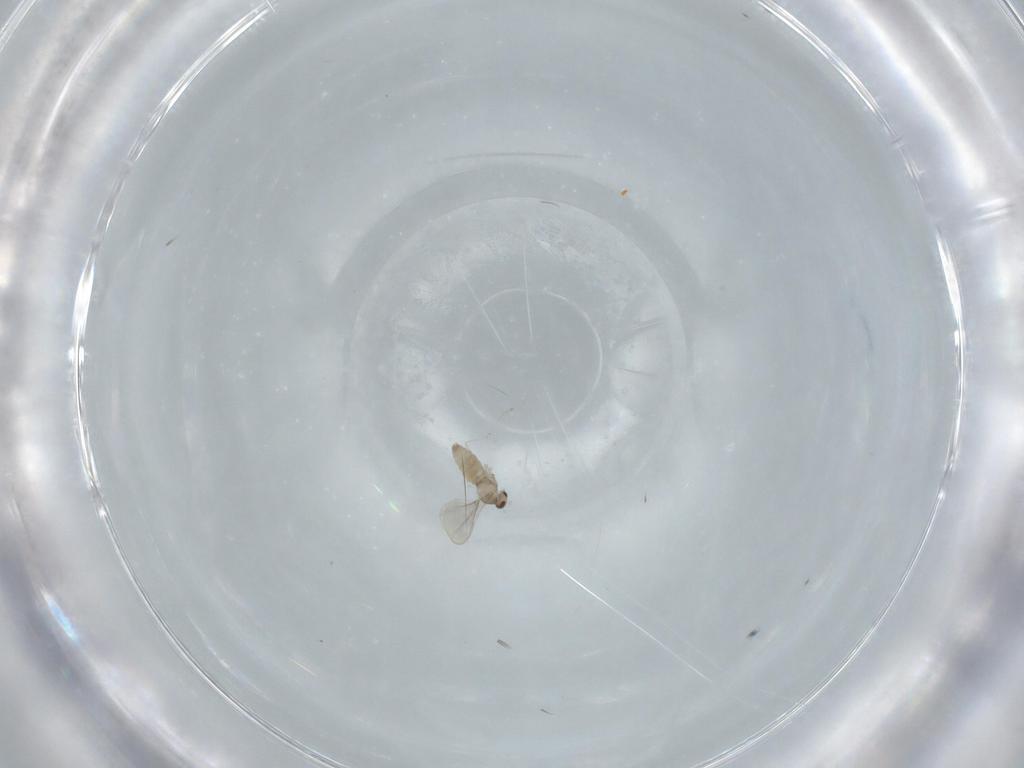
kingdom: Animalia
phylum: Arthropoda
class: Insecta
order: Diptera
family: Cecidomyiidae
